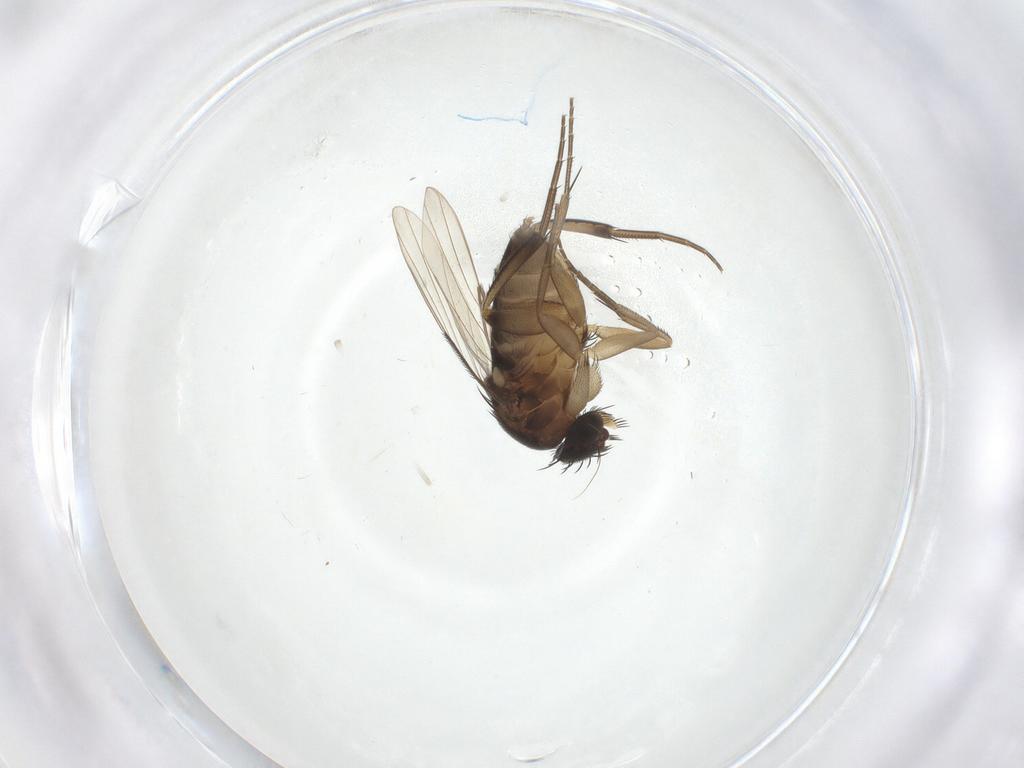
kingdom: Animalia
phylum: Arthropoda
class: Insecta
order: Diptera
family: Phoridae
